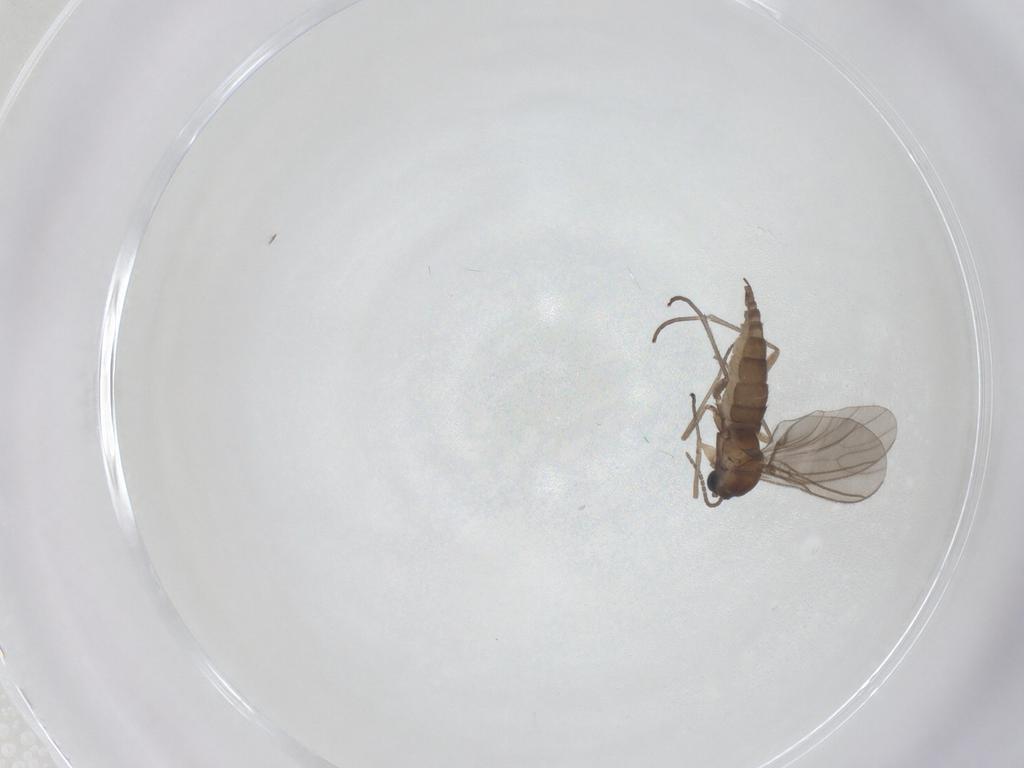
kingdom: Animalia
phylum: Arthropoda
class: Insecta
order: Diptera
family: Sciaridae
